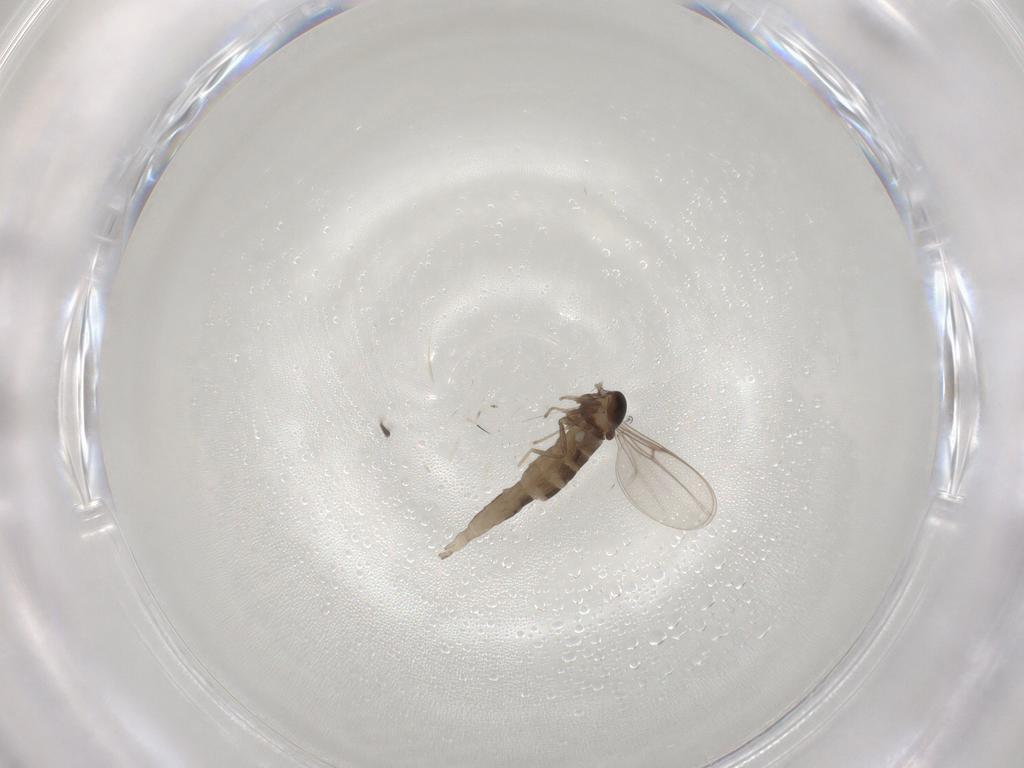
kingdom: Animalia
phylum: Arthropoda
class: Insecta
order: Diptera
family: Cecidomyiidae
